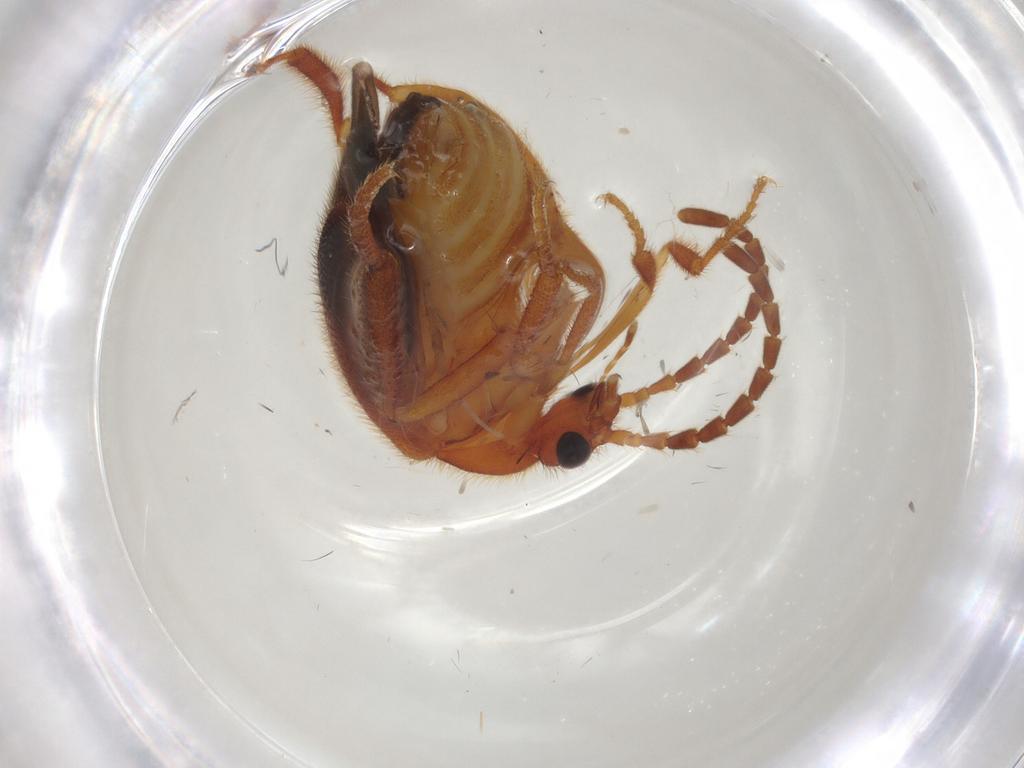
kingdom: Animalia
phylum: Arthropoda
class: Insecta
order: Coleoptera
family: Ripiphoridae
